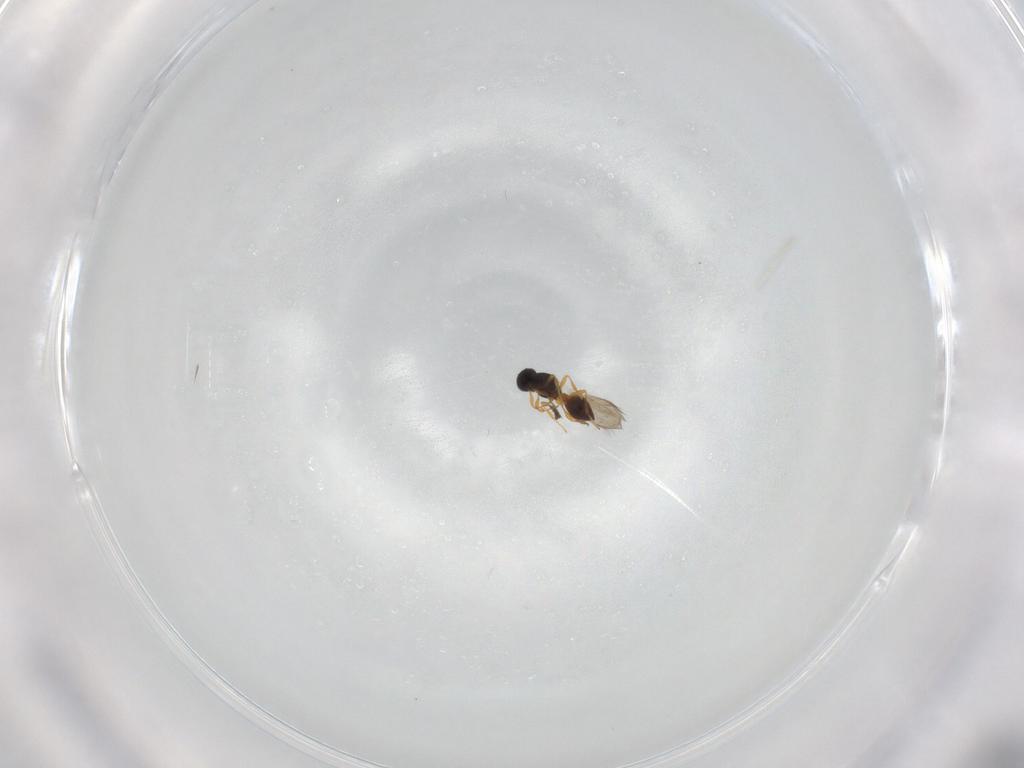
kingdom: Animalia
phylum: Arthropoda
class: Insecta
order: Hymenoptera
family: Platygastridae
